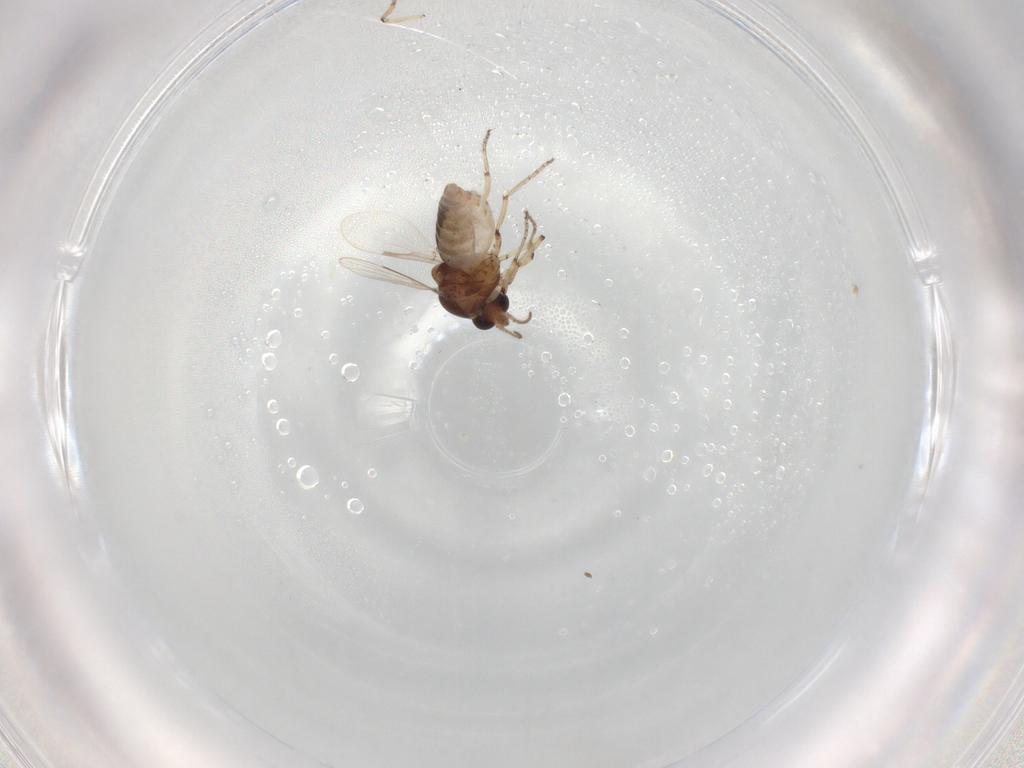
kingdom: Animalia
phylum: Arthropoda
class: Insecta
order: Diptera
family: Ceratopogonidae
